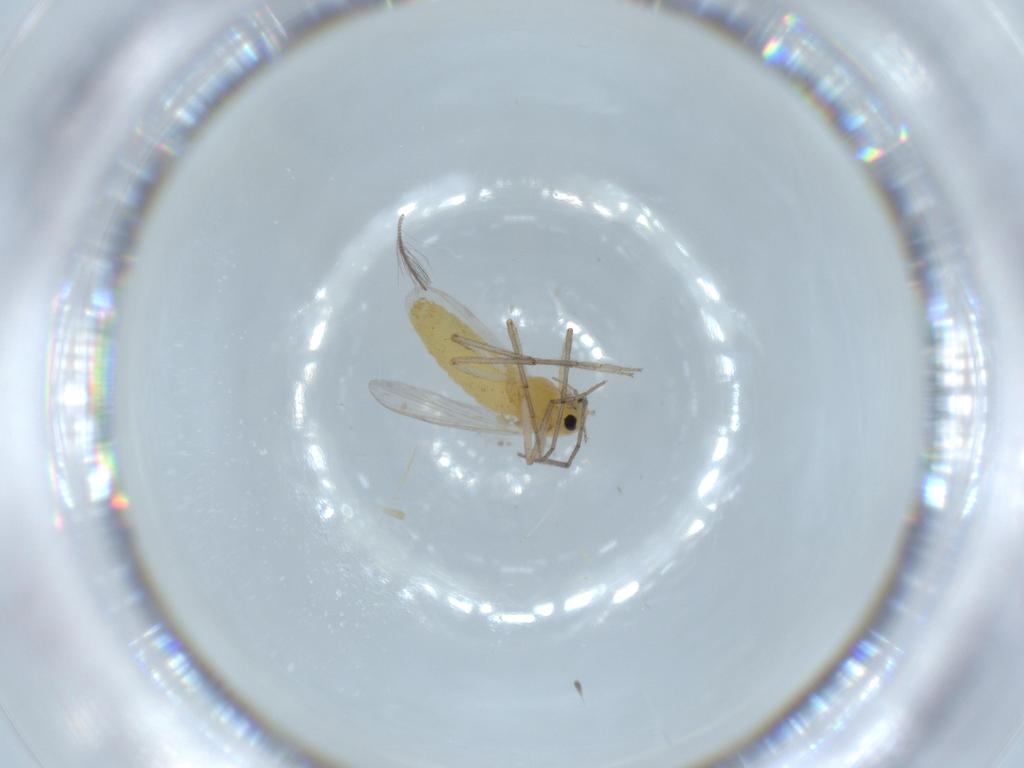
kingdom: Animalia
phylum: Arthropoda
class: Insecta
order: Diptera
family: Chironomidae
